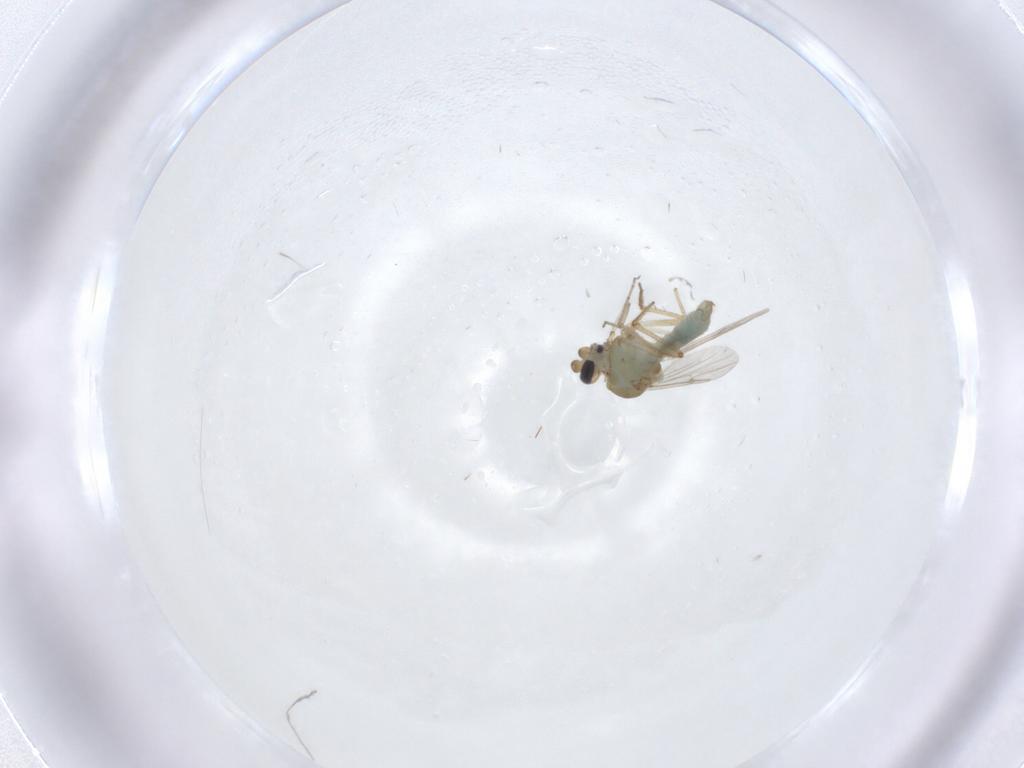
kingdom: Animalia
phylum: Arthropoda
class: Insecta
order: Diptera
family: Ceratopogonidae
